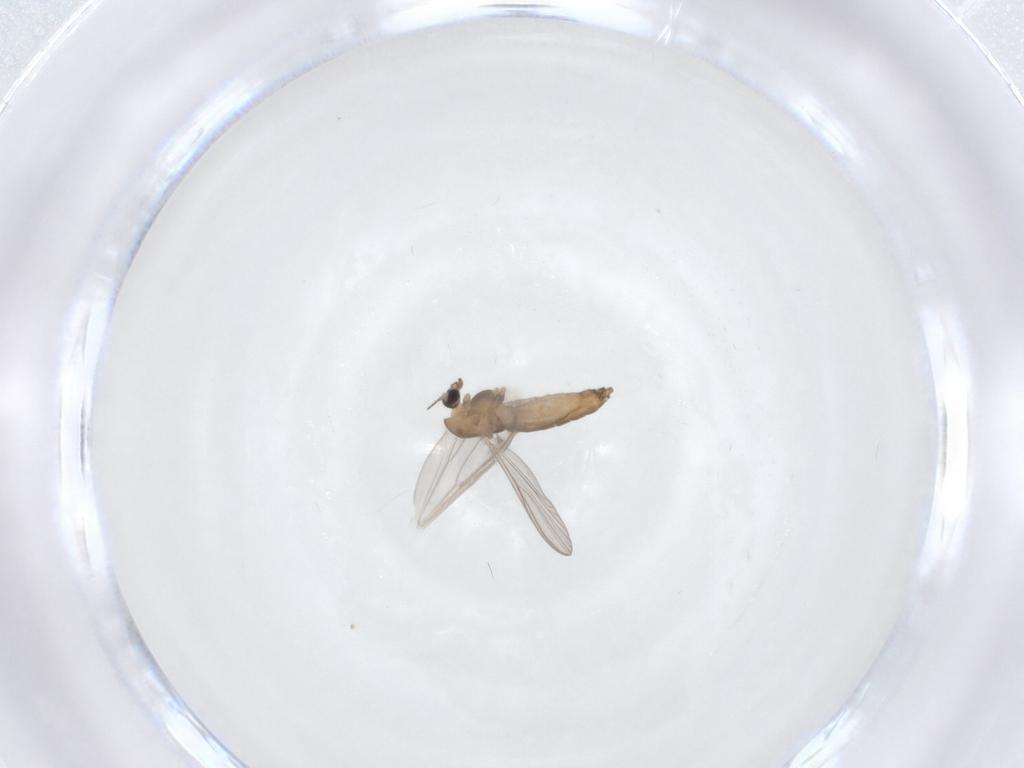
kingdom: Animalia
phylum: Arthropoda
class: Insecta
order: Diptera
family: Chironomidae
